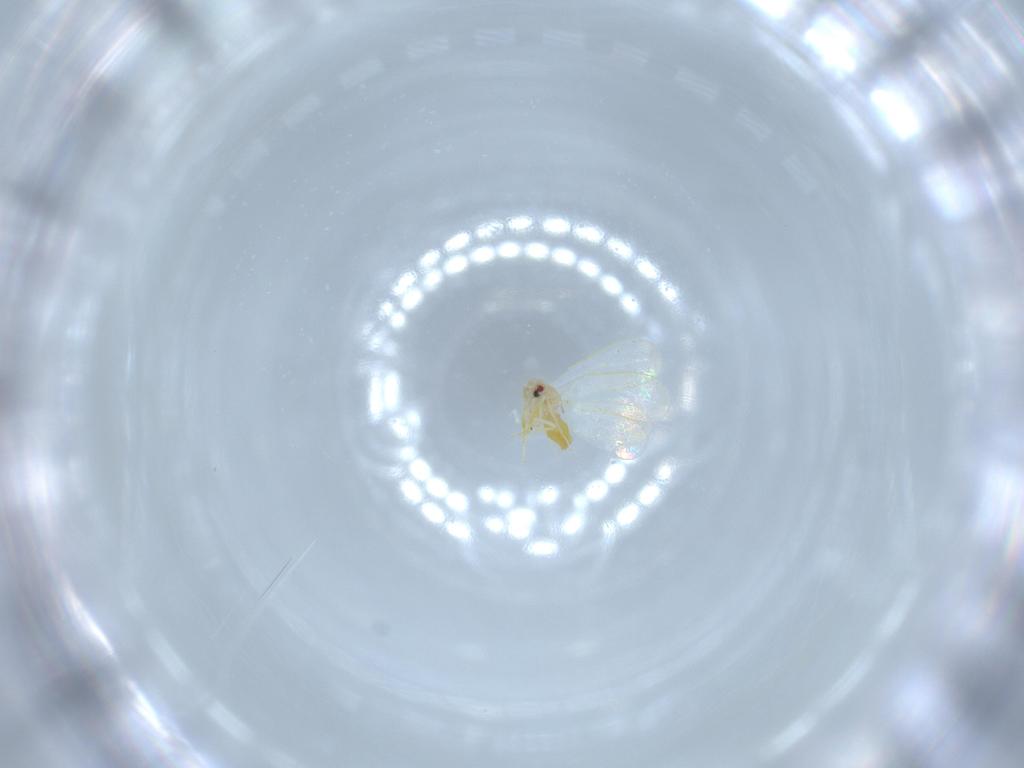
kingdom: Animalia
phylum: Arthropoda
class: Insecta
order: Hemiptera
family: Aleyrodidae
